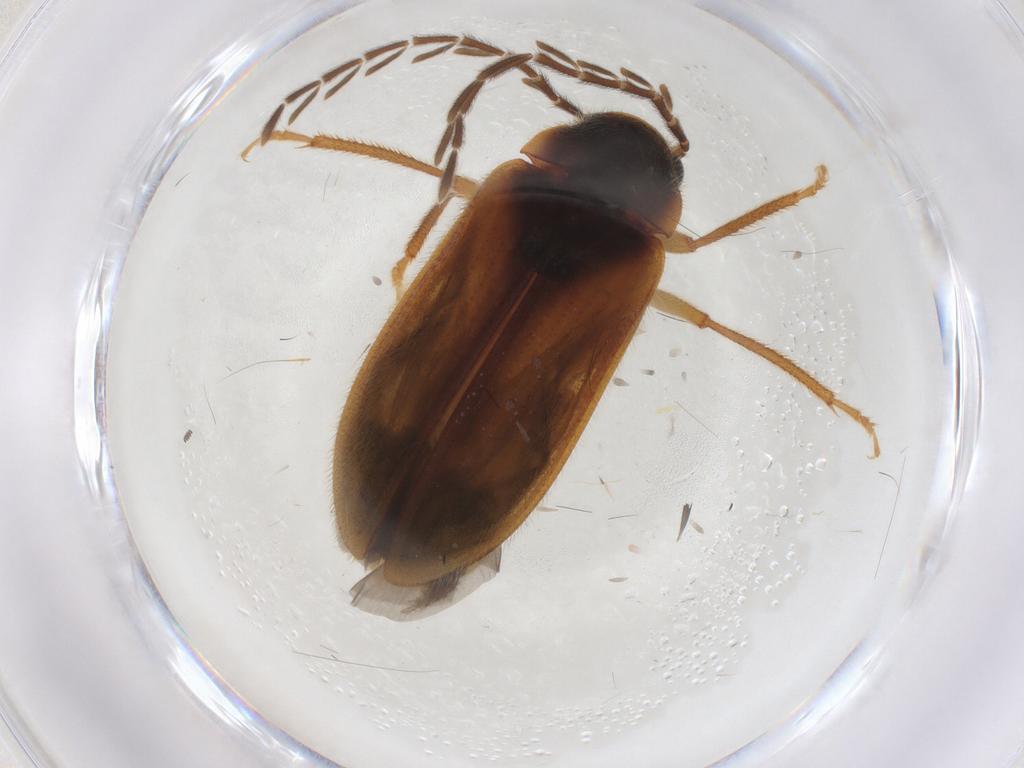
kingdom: Animalia
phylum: Arthropoda
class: Insecta
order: Coleoptera
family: Ptilodactylidae
